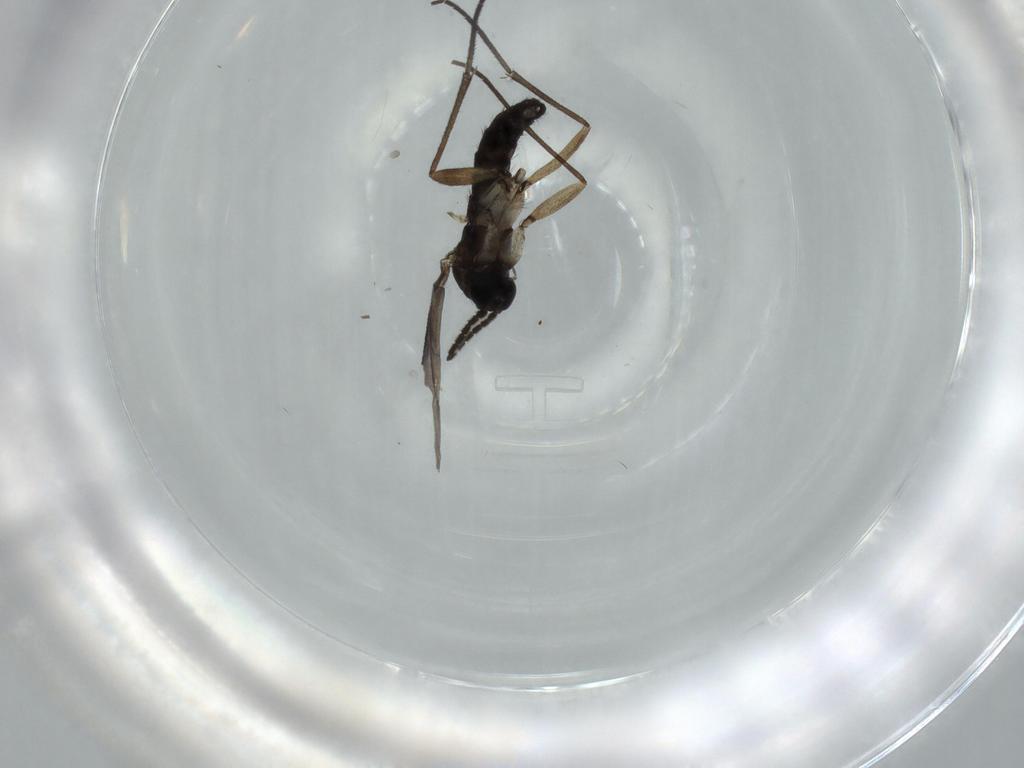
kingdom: Animalia
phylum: Arthropoda
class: Insecta
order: Diptera
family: Sciaridae
